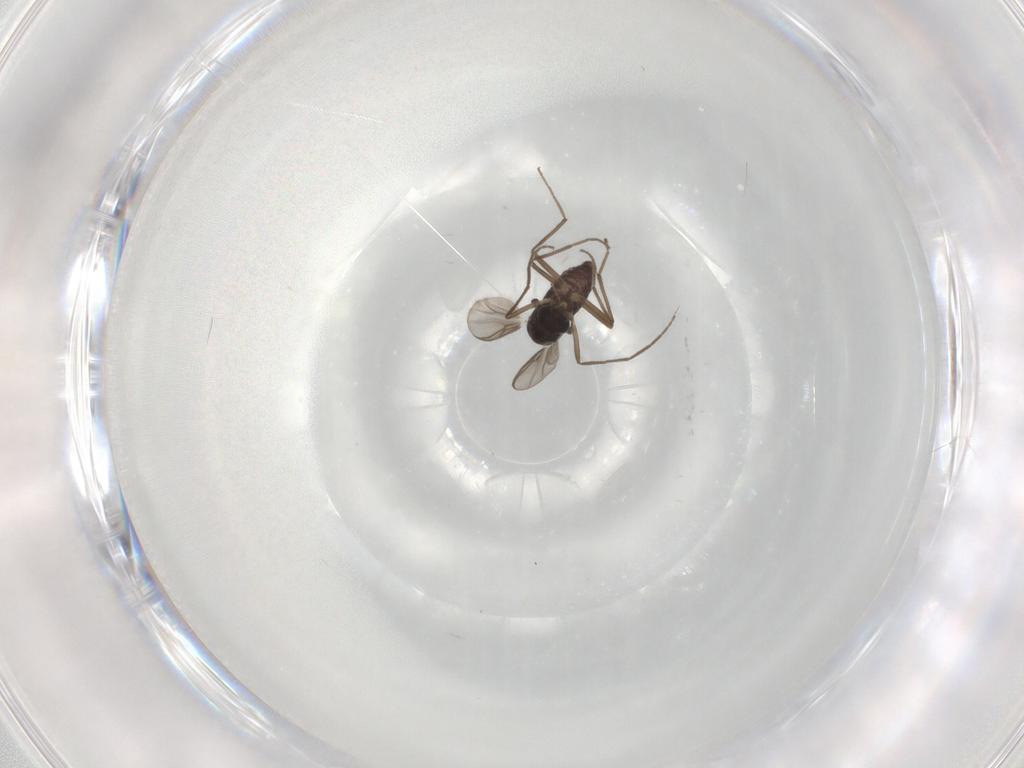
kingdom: Animalia
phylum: Arthropoda
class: Insecta
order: Diptera
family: Chironomidae
